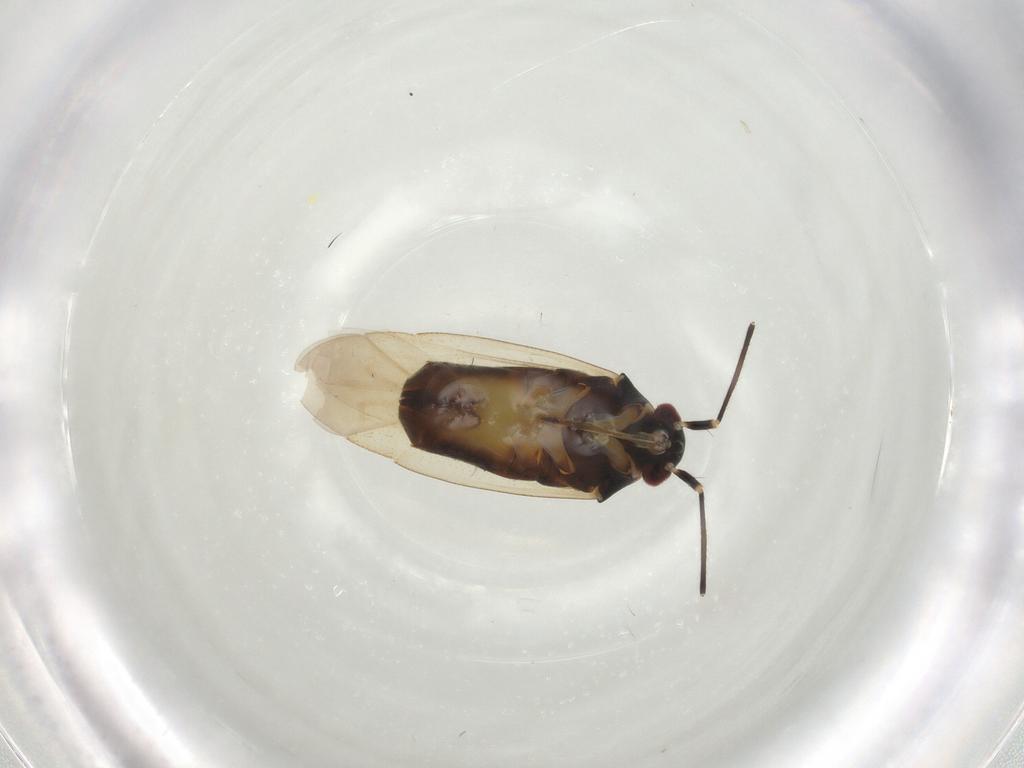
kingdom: Animalia
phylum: Arthropoda
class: Insecta
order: Hemiptera
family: Miridae
